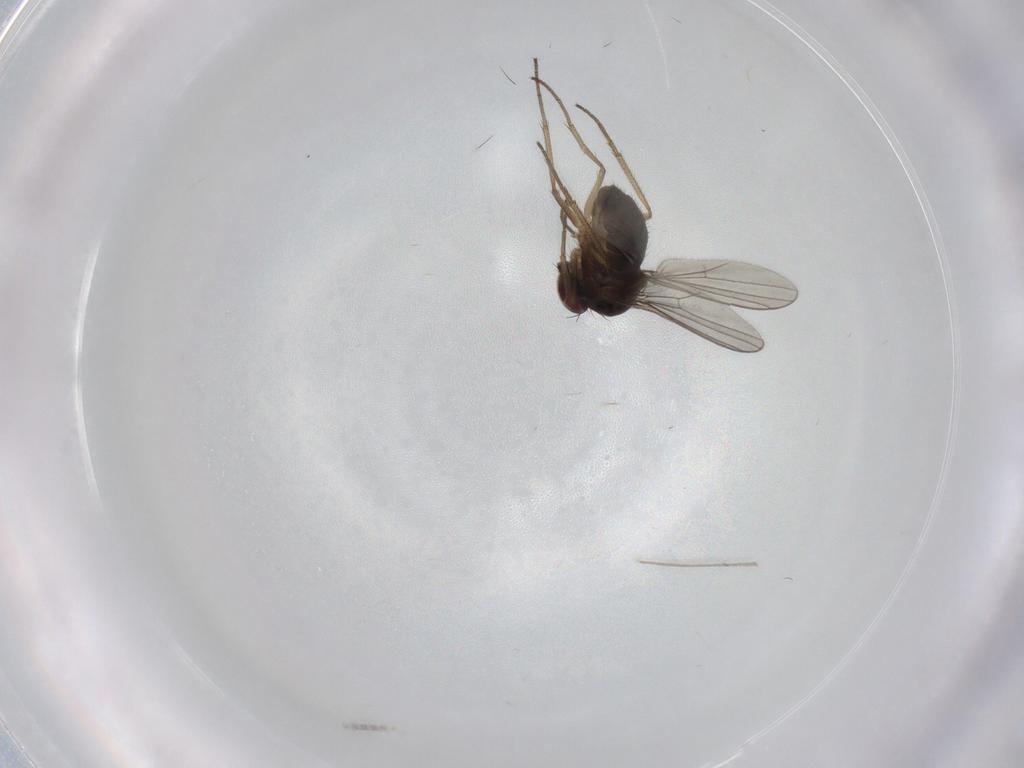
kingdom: Animalia
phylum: Arthropoda
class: Insecta
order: Diptera
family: Dolichopodidae
